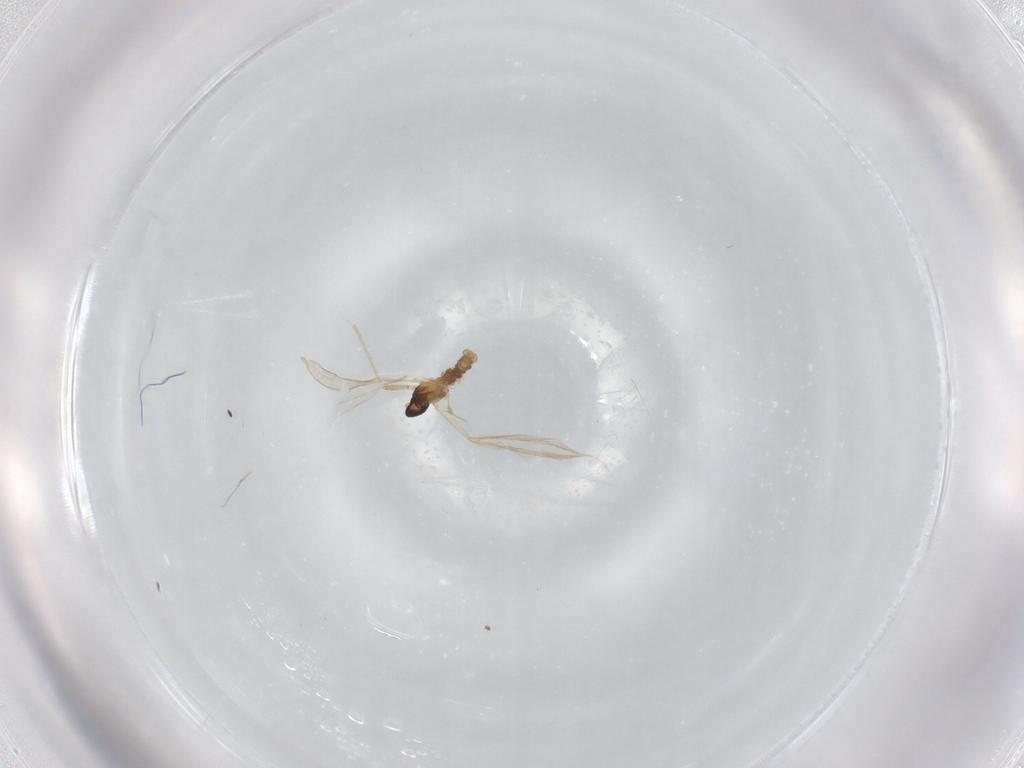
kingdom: Animalia
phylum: Arthropoda
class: Insecta
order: Diptera
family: Cecidomyiidae
